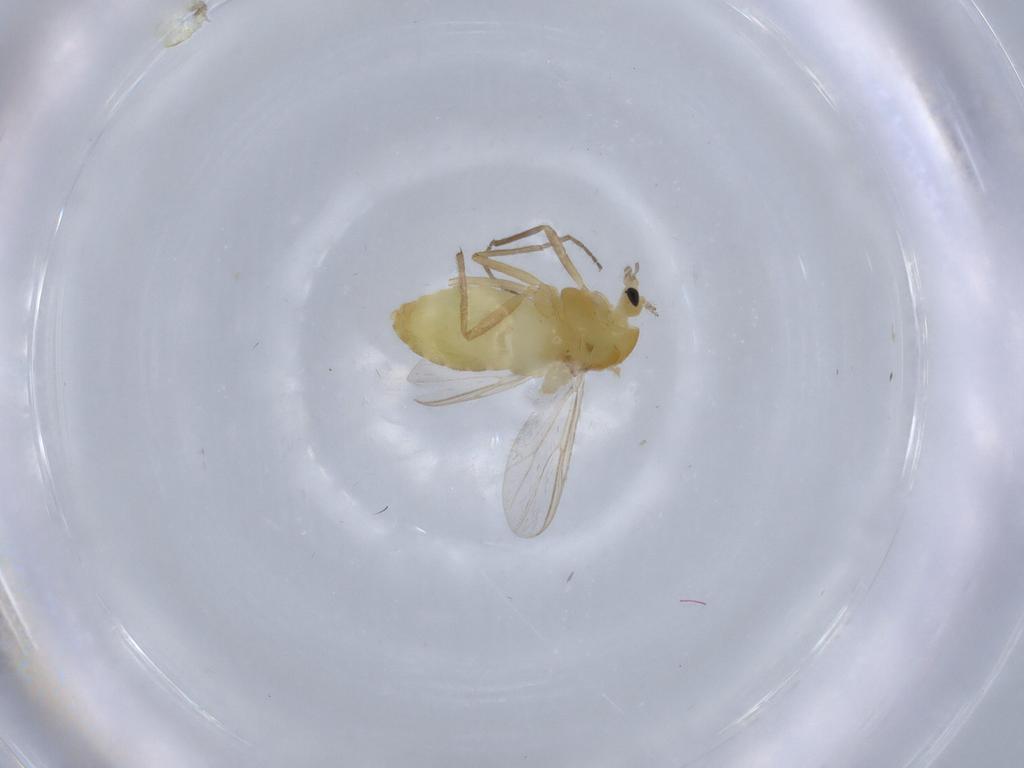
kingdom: Animalia
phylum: Arthropoda
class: Insecta
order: Diptera
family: Chironomidae
